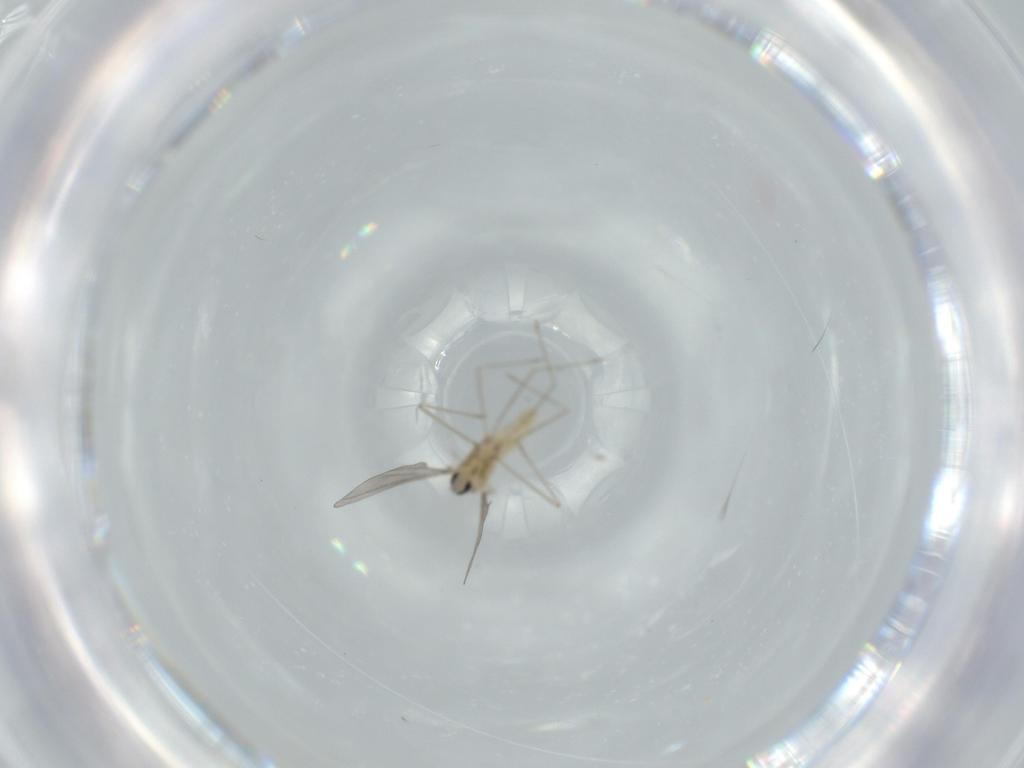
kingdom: Animalia
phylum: Arthropoda
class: Insecta
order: Diptera
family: Cecidomyiidae
